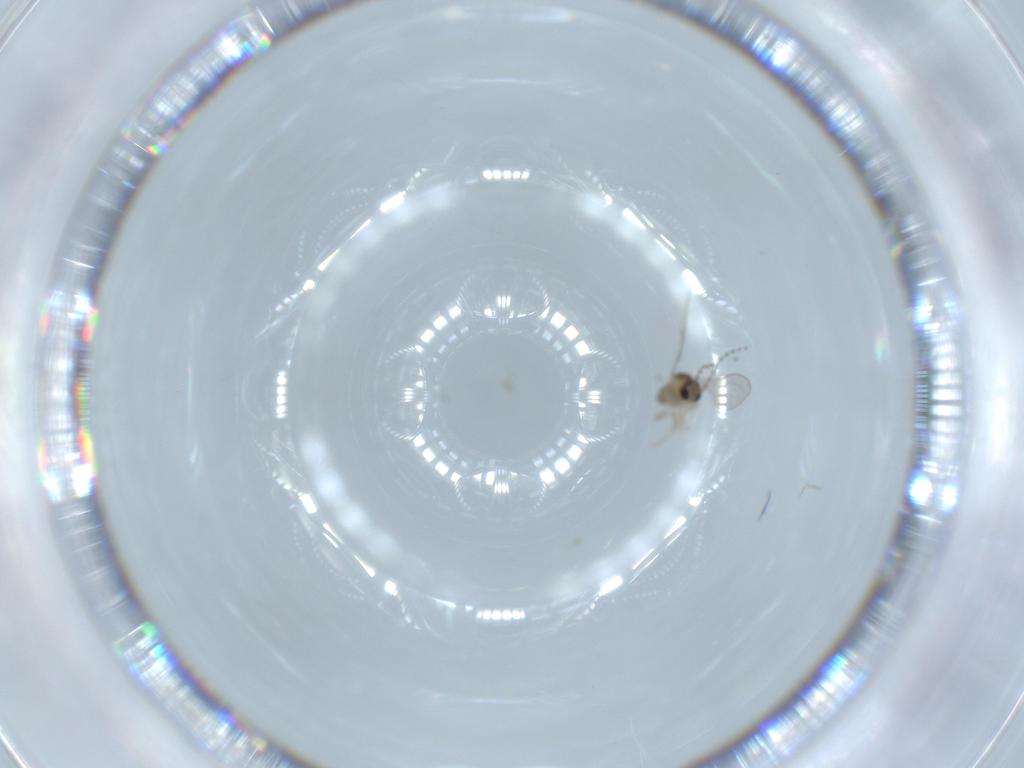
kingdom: Animalia
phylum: Arthropoda
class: Insecta
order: Diptera
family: Cecidomyiidae
